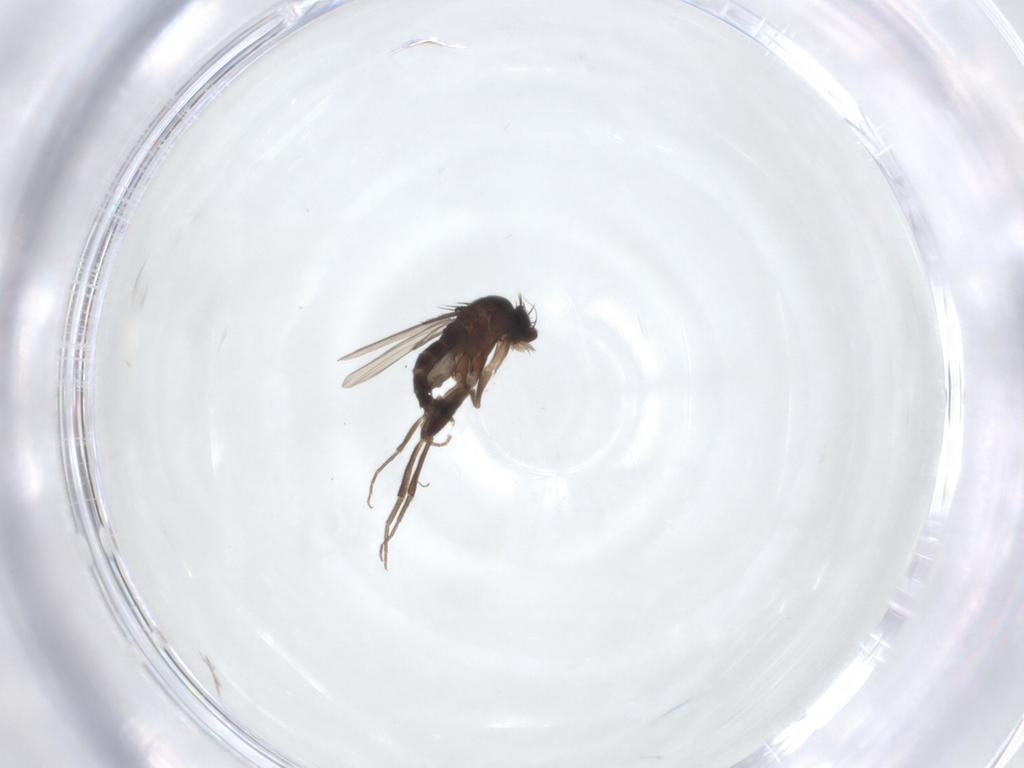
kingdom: Animalia
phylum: Arthropoda
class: Insecta
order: Diptera
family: Phoridae
